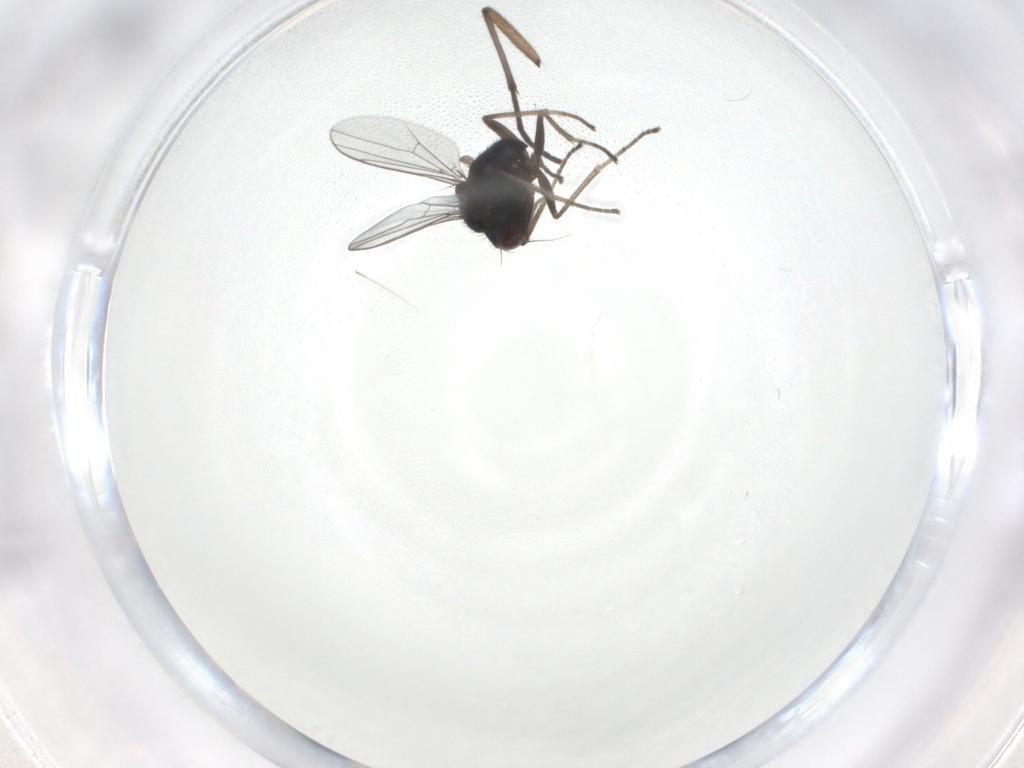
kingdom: Animalia
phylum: Arthropoda
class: Insecta
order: Diptera
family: Dolichopodidae
